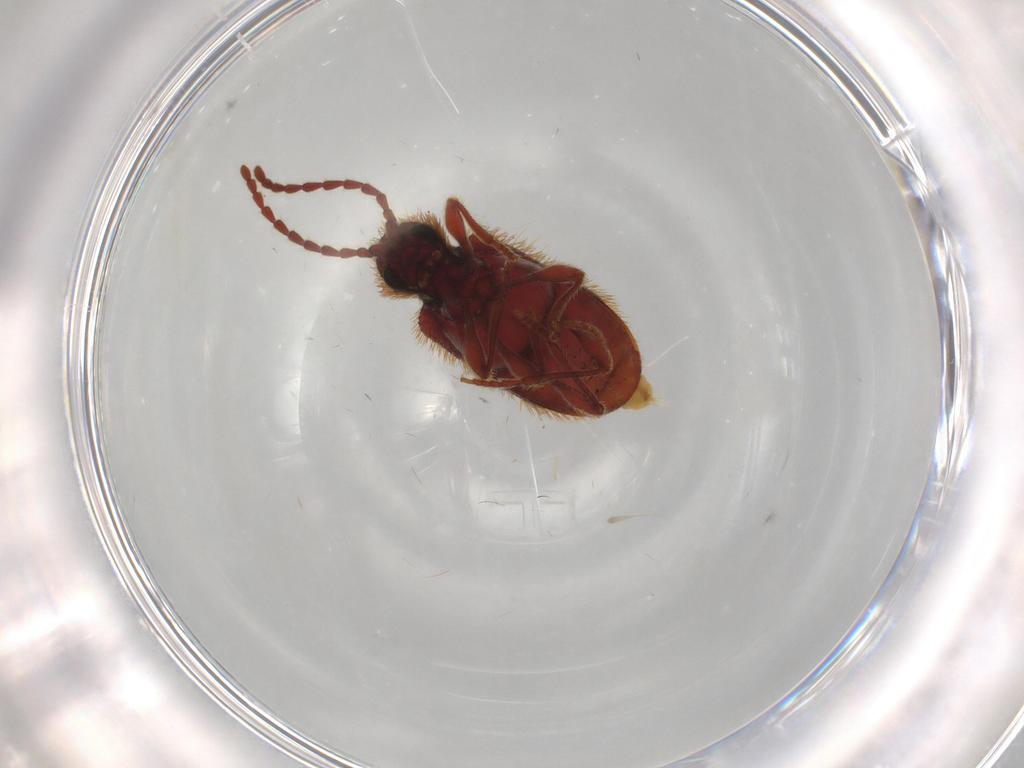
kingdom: Animalia
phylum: Arthropoda
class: Insecta
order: Coleoptera
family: Ptinidae
